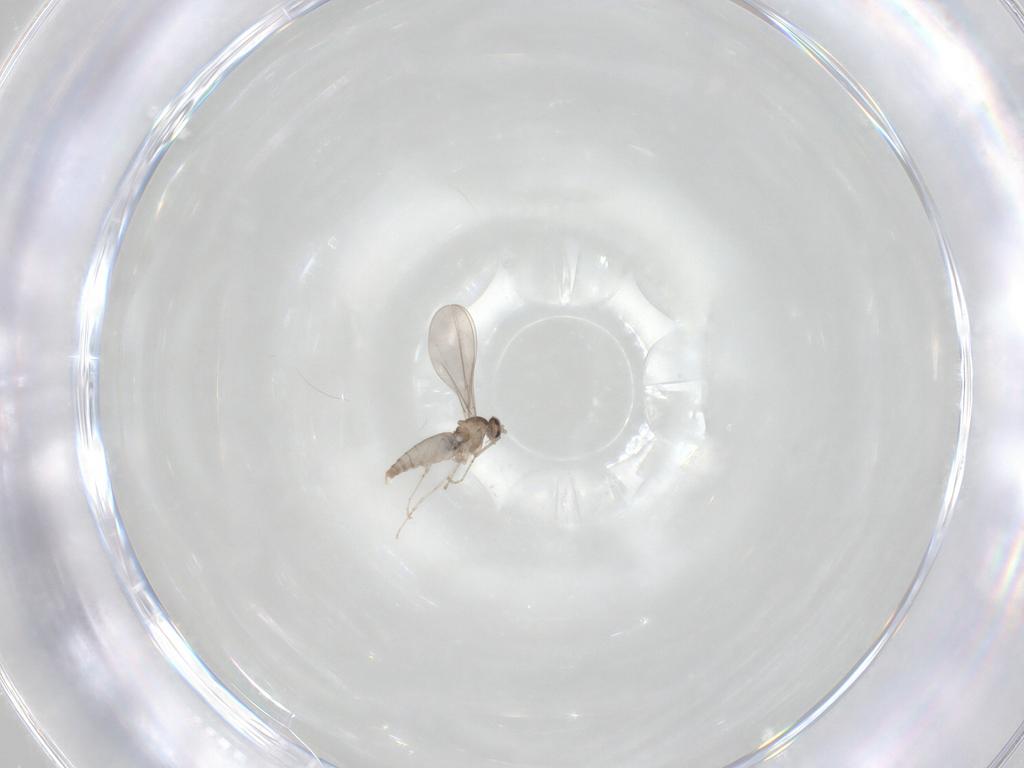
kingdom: Animalia
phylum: Arthropoda
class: Insecta
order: Diptera
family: Cecidomyiidae
